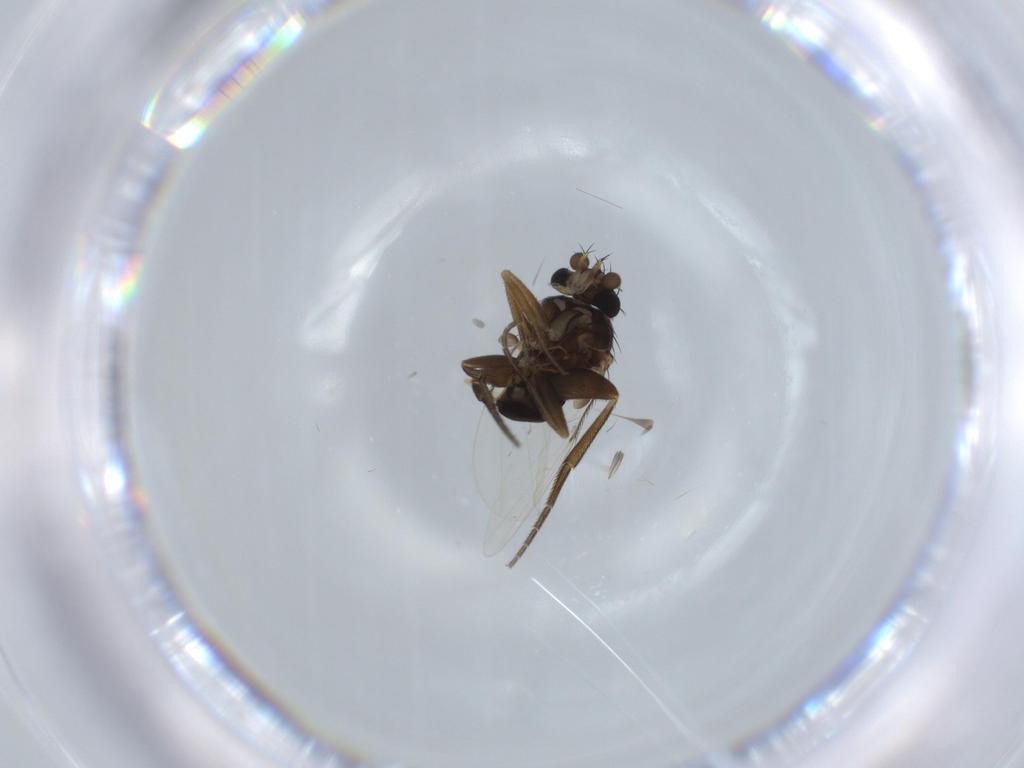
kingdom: Animalia
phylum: Arthropoda
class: Insecta
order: Diptera
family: Phoridae
